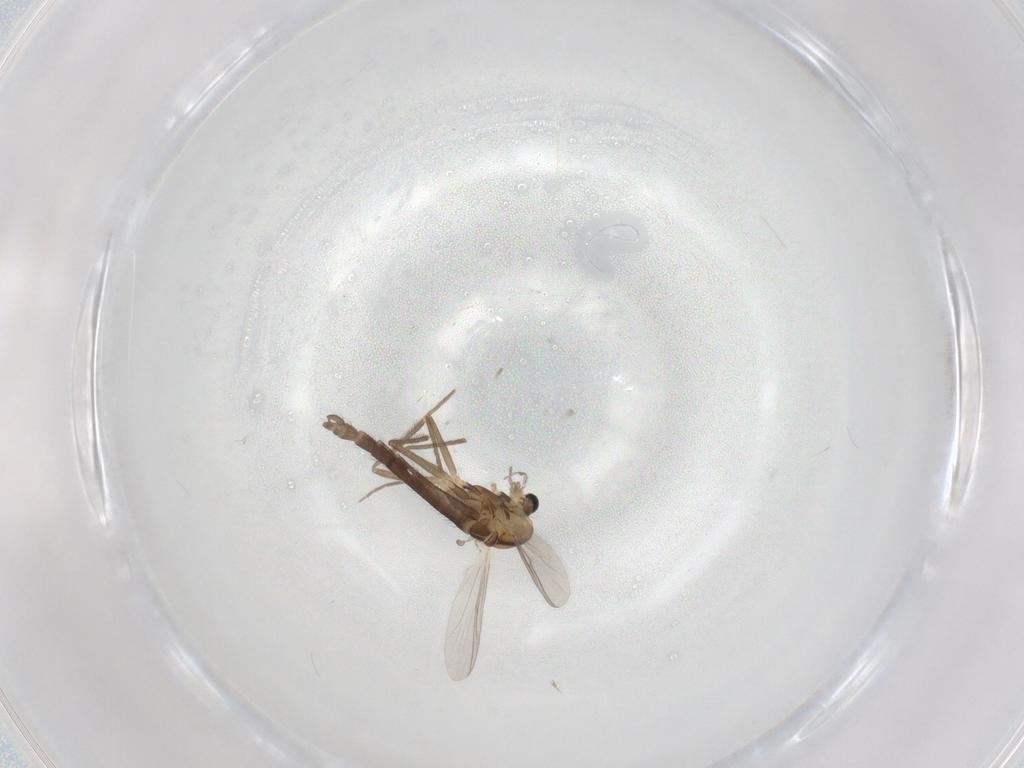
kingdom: Animalia
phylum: Arthropoda
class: Insecta
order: Diptera
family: Chironomidae
